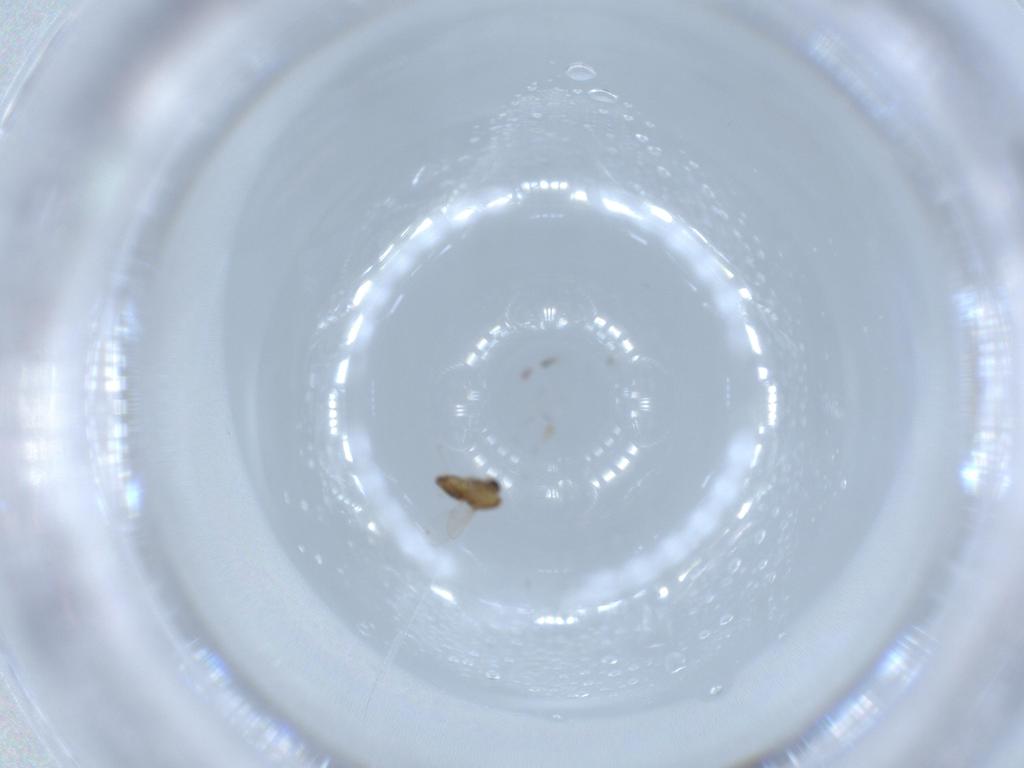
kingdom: Animalia
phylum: Arthropoda
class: Insecta
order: Diptera
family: Chironomidae
